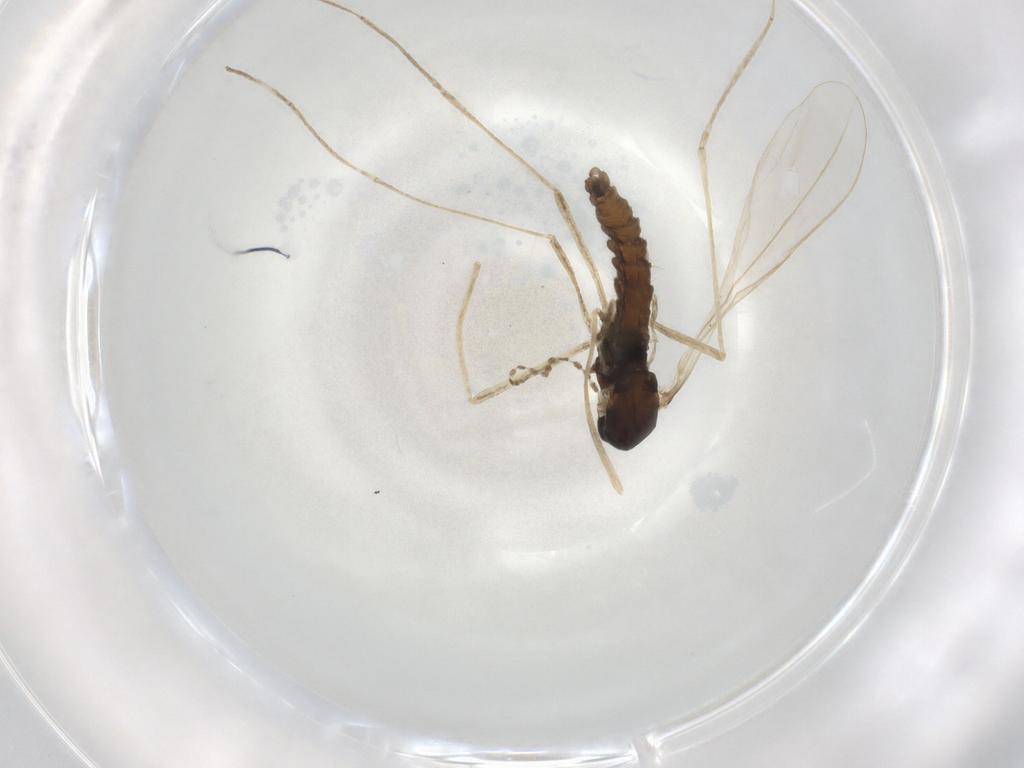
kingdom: Animalia
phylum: Arthropoda
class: Insecta
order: Diptera
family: Cecidomyiidae
